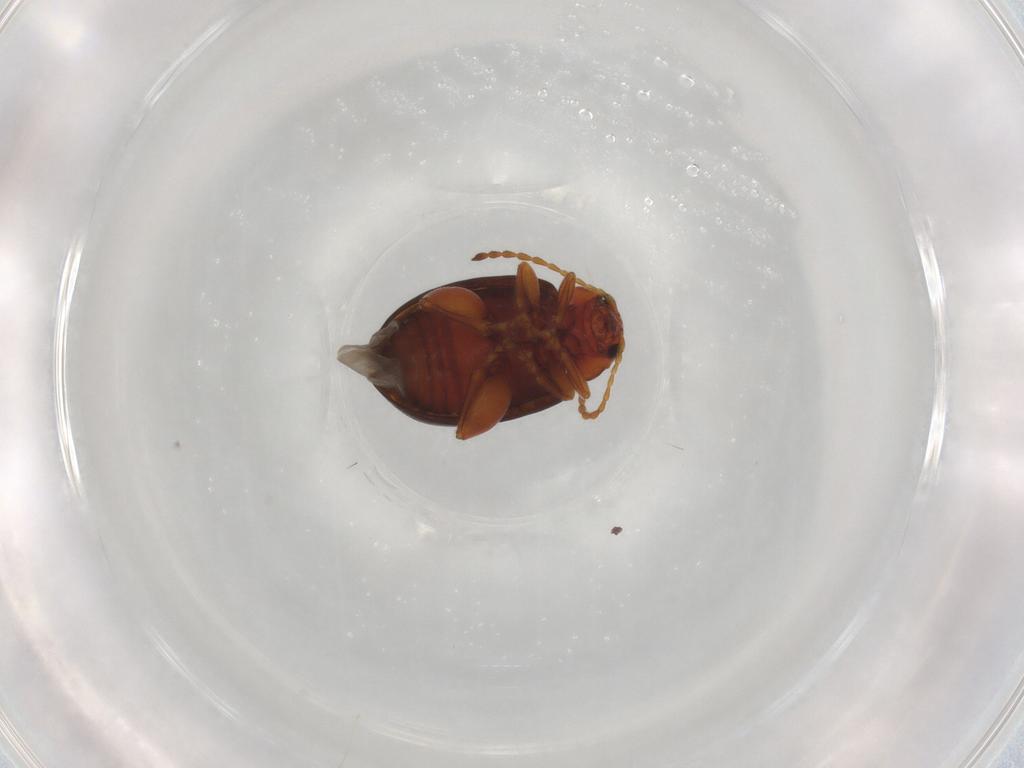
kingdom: Animalia
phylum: Arthropoda
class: Insecta
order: Coleoptera
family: Chrysomelidae
